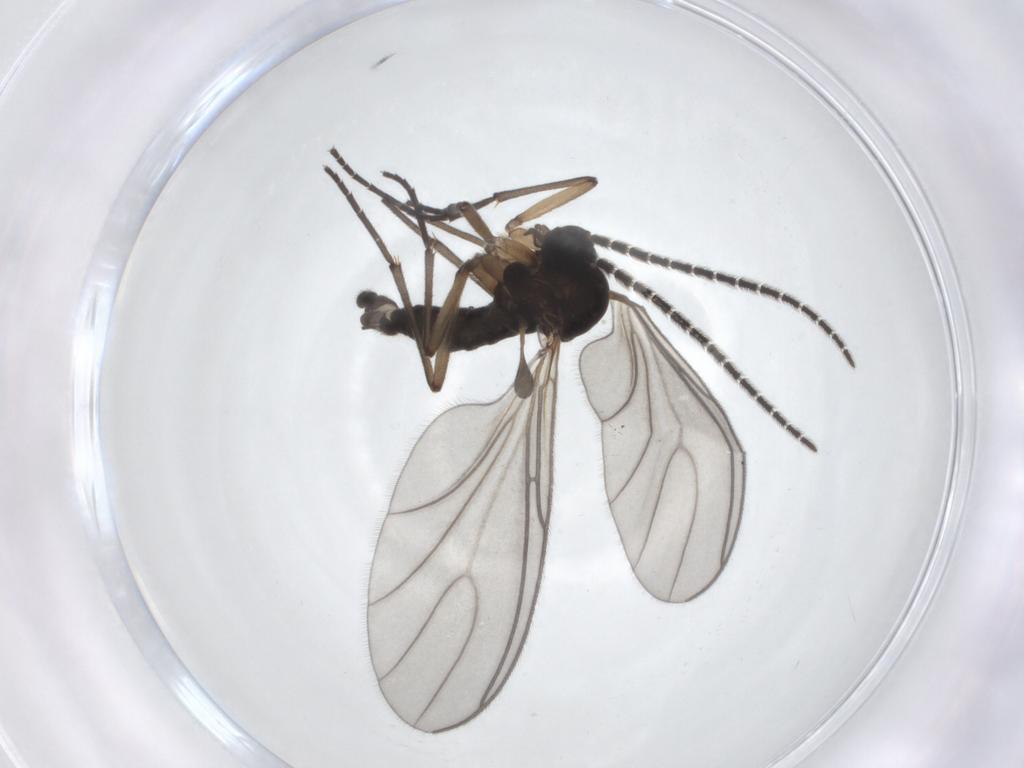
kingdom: Animalia
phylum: Arthropoda
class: Insecta
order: Diptera
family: Sciaridae
